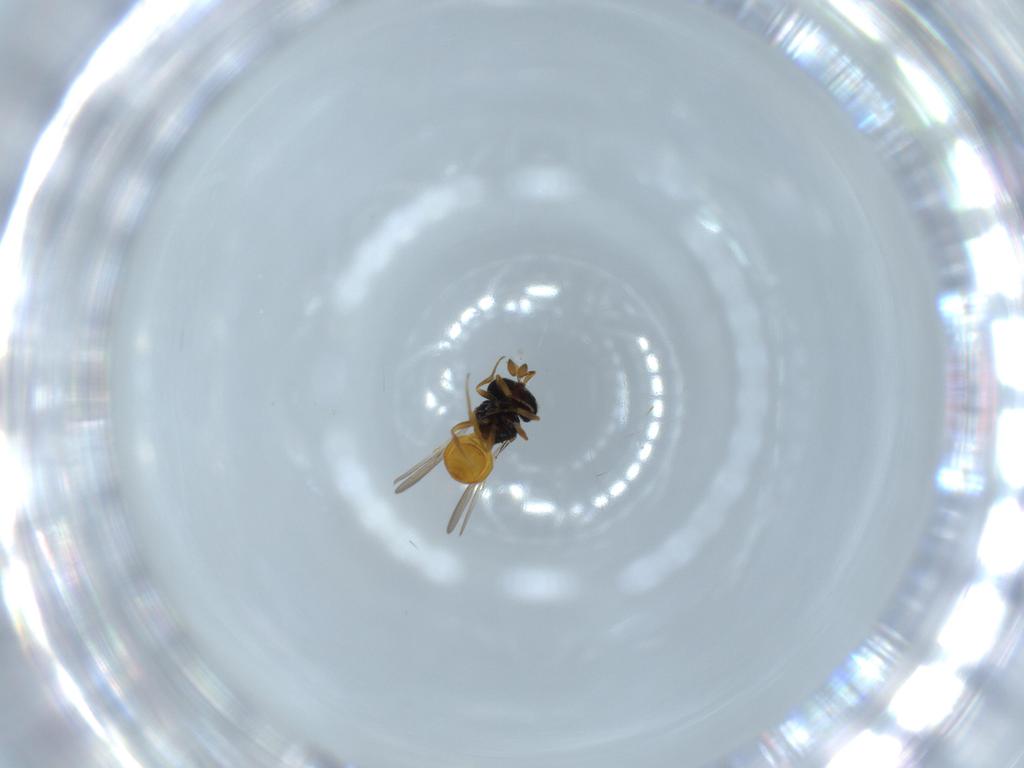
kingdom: Animalia
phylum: Arthropoda
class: Insecta
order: Hymenoptera
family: Scelionidae
